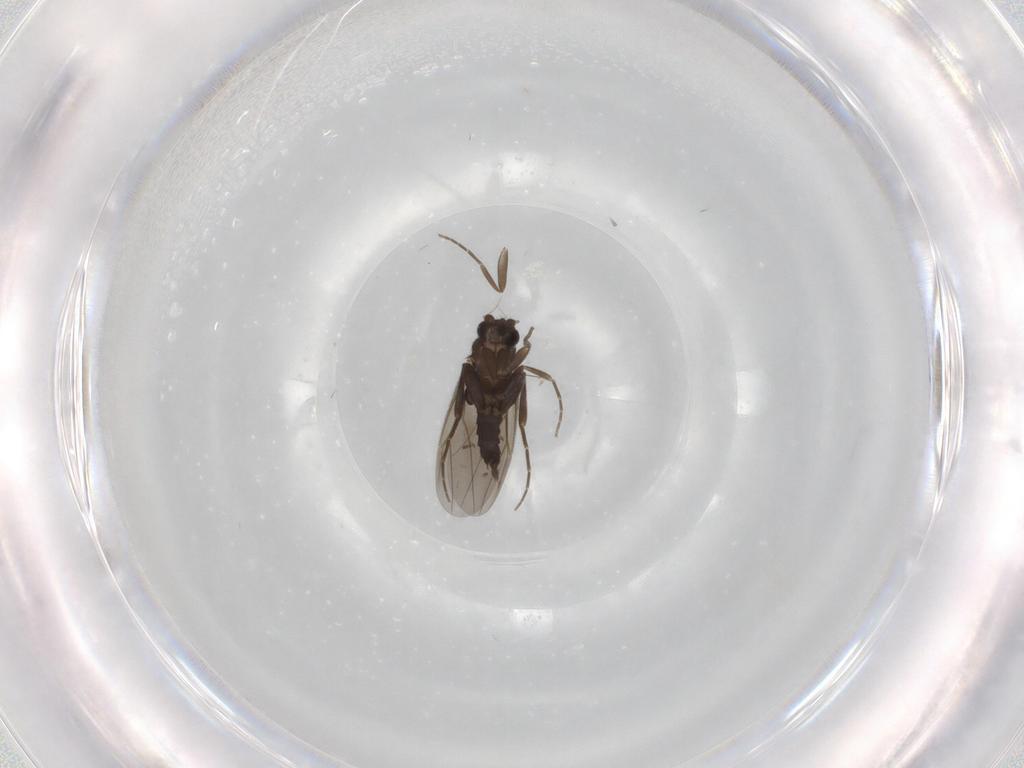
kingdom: Animalia
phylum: Arthropoda
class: Insecta
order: Diptera
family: Hybotidae
